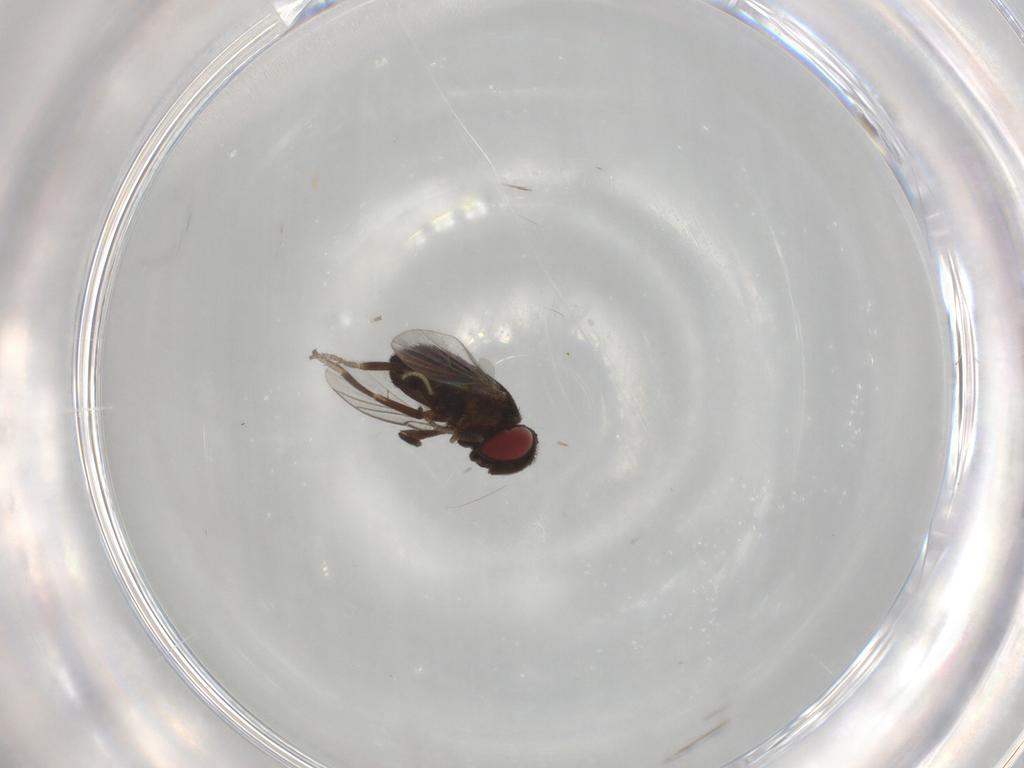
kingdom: Animalia
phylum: Arthropoda
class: Insecta
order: Diptera
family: Cecidomyiidae
